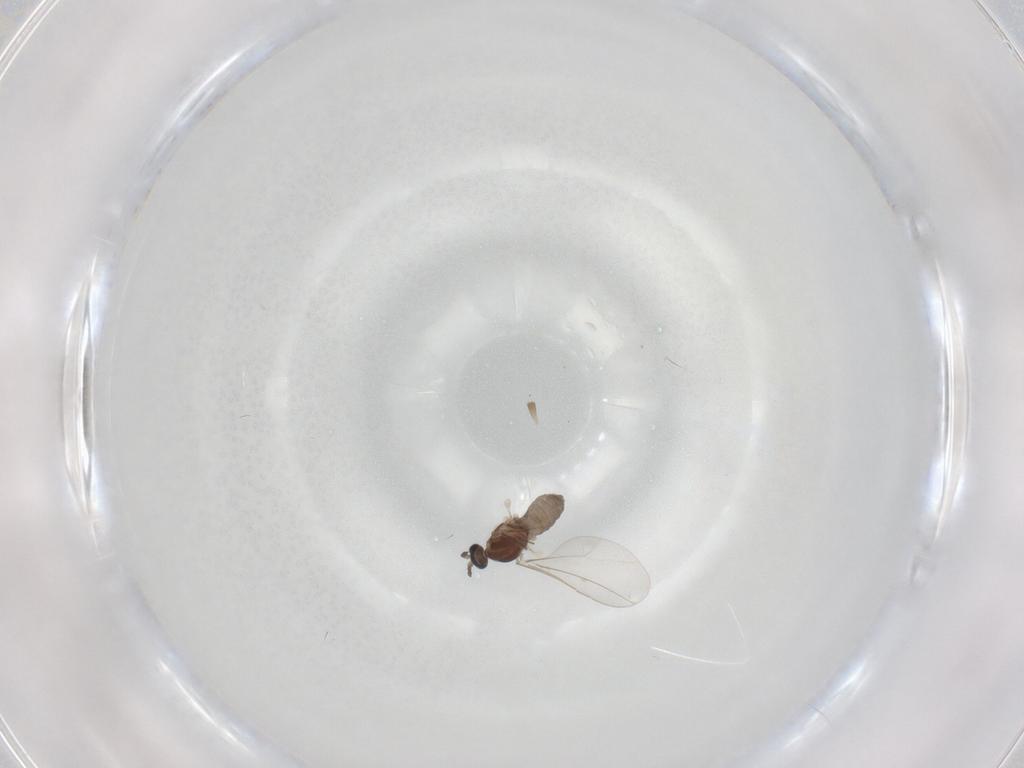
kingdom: Animalia
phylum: Arthropoda
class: Insecta
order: Diptera
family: Cecidomyiidae
